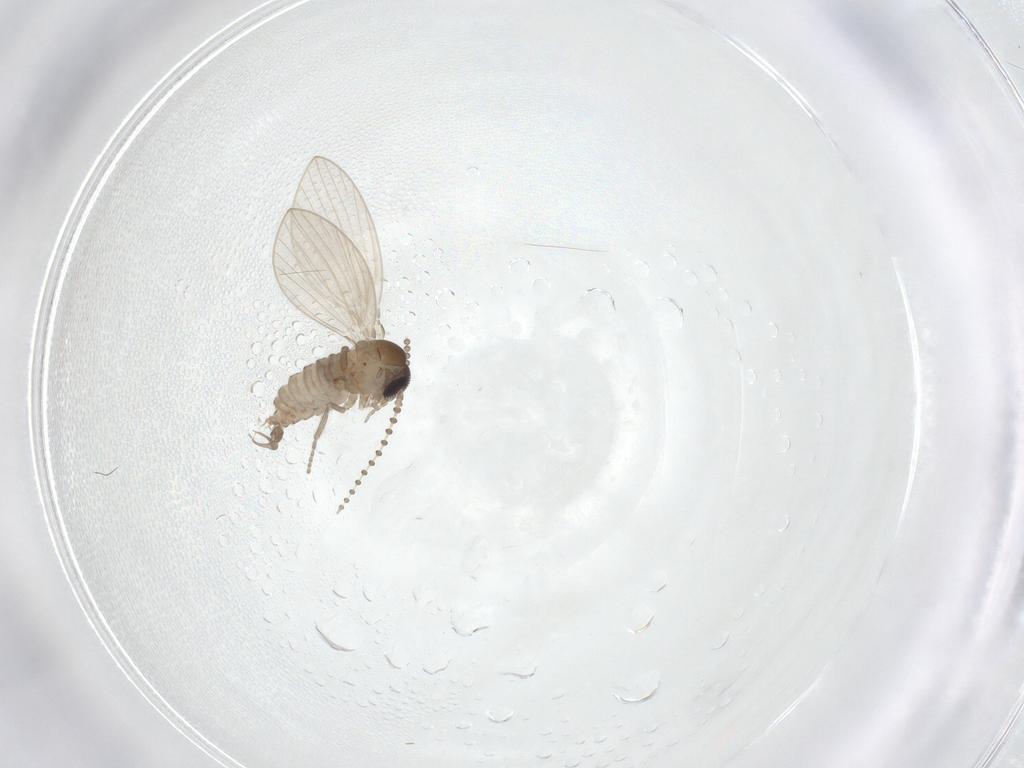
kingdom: Animalia
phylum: Arthropoda
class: Insecta
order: Diptera
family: Psychodidae
